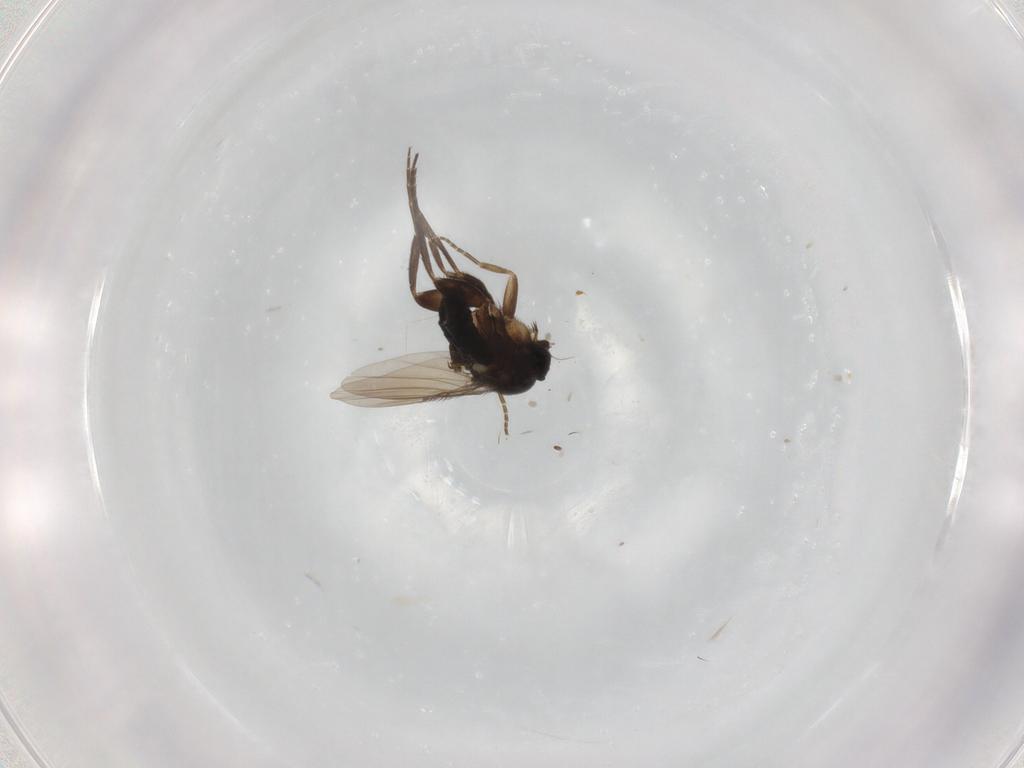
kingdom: Animalia
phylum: Arthropoda
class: Insecta
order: Diptera
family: Phoridae
